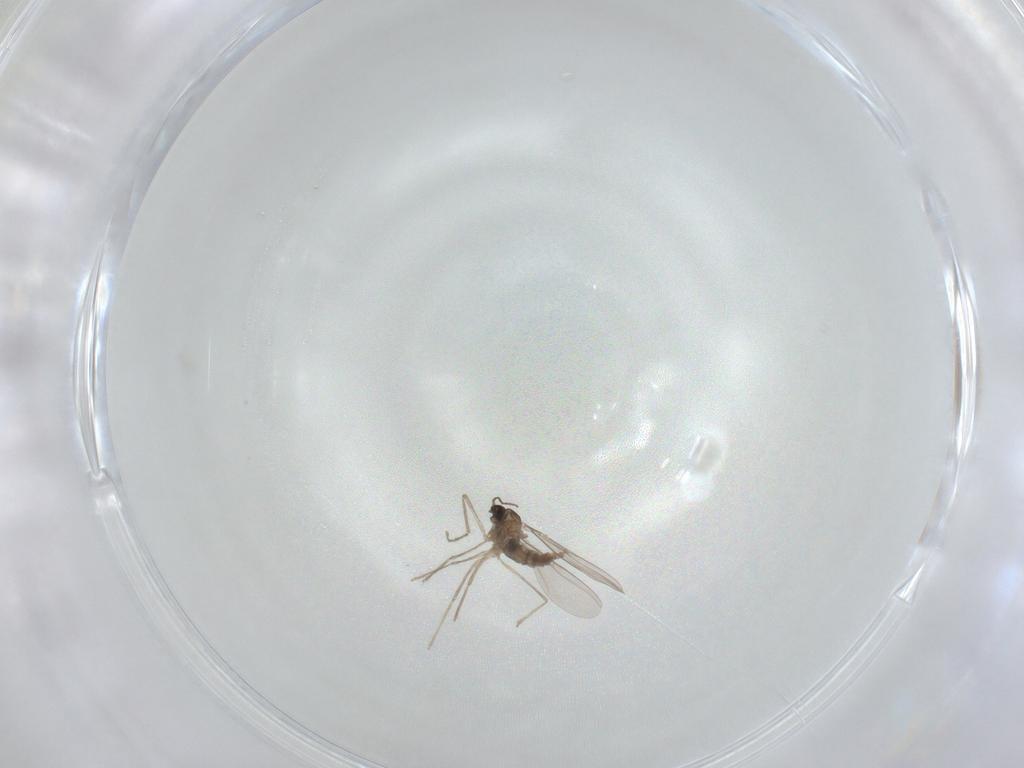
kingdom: Animalia
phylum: Arthropoda
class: Insecta
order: Diptera
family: Cecidomyiidae
